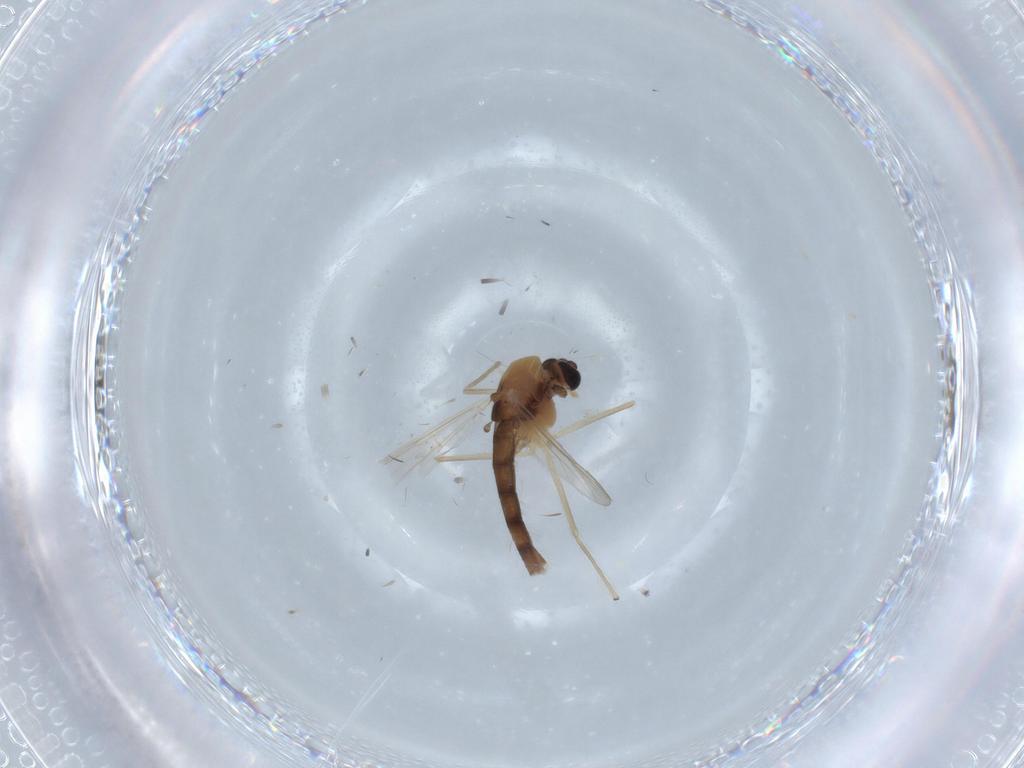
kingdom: Animalia
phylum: Arthropoda
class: Insecta
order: Diptera
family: Chironomidae
